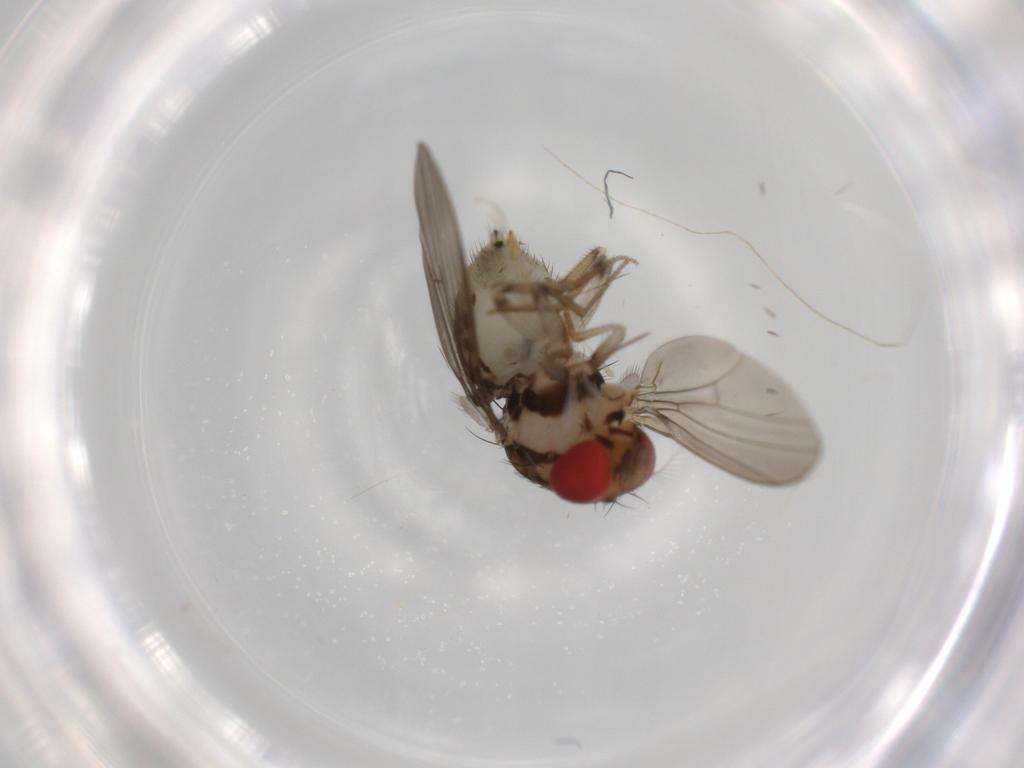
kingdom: Animalia
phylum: Arthropoda
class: Insecta
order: Diptera
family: Drosophilidae
